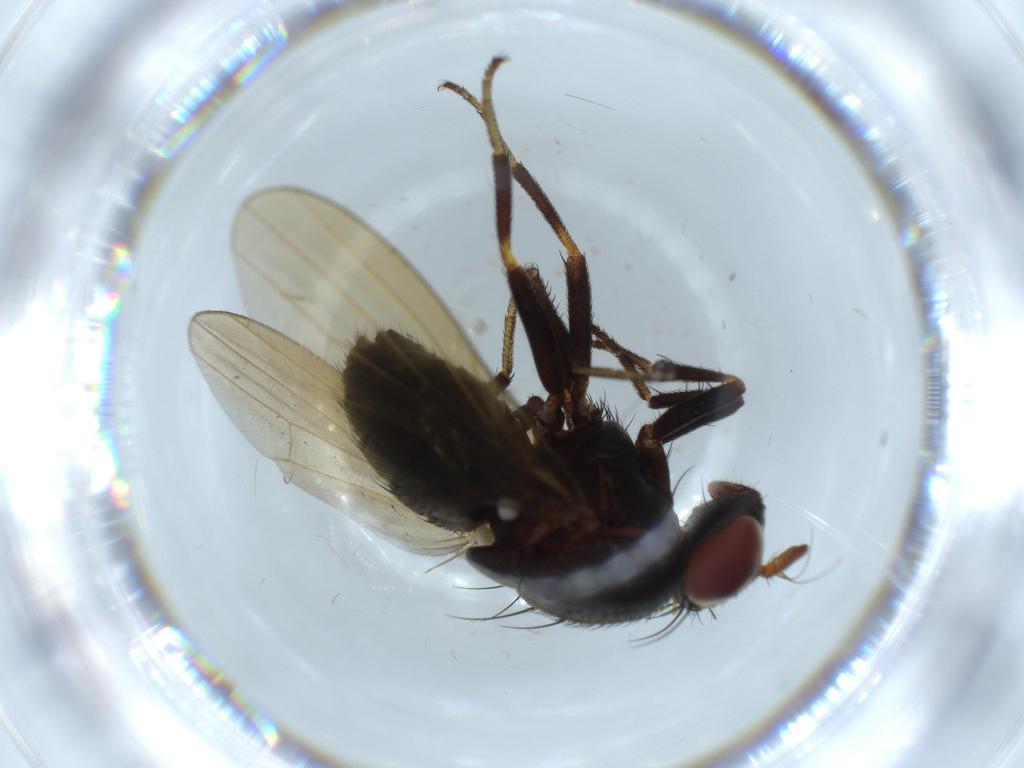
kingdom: Animalia
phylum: Arthropoda
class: Insecta
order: Diptera
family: Lauxaniidae
